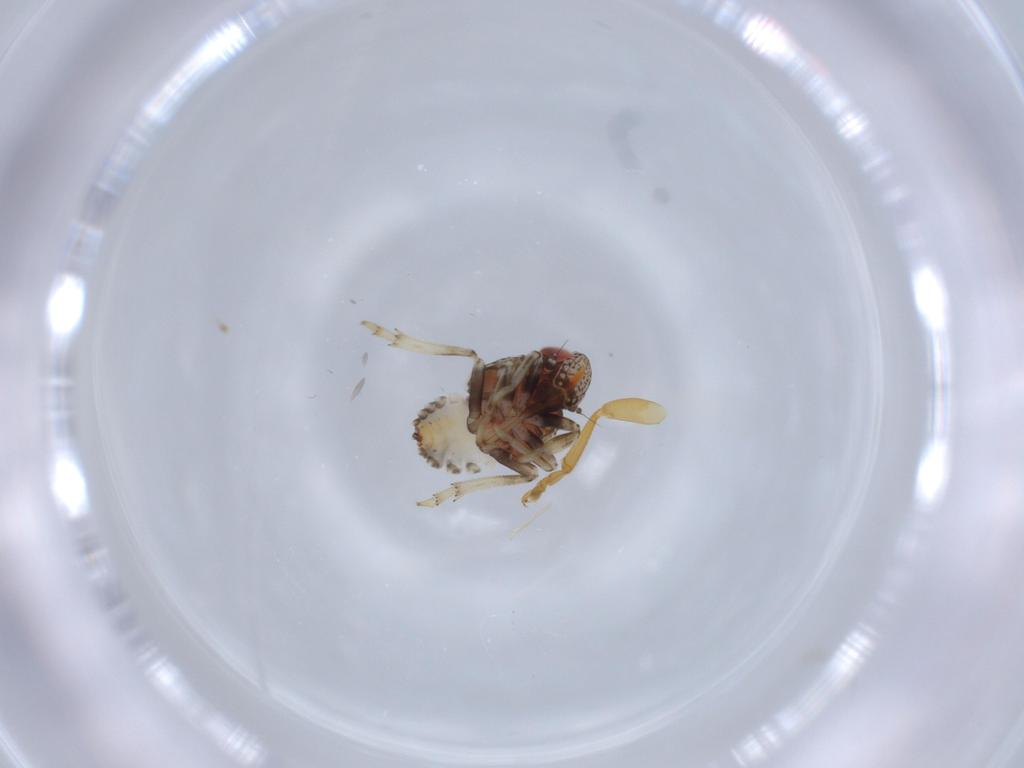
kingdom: Animalia
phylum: Arthropoda
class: Insecta
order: Hemiptera
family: Issidae
